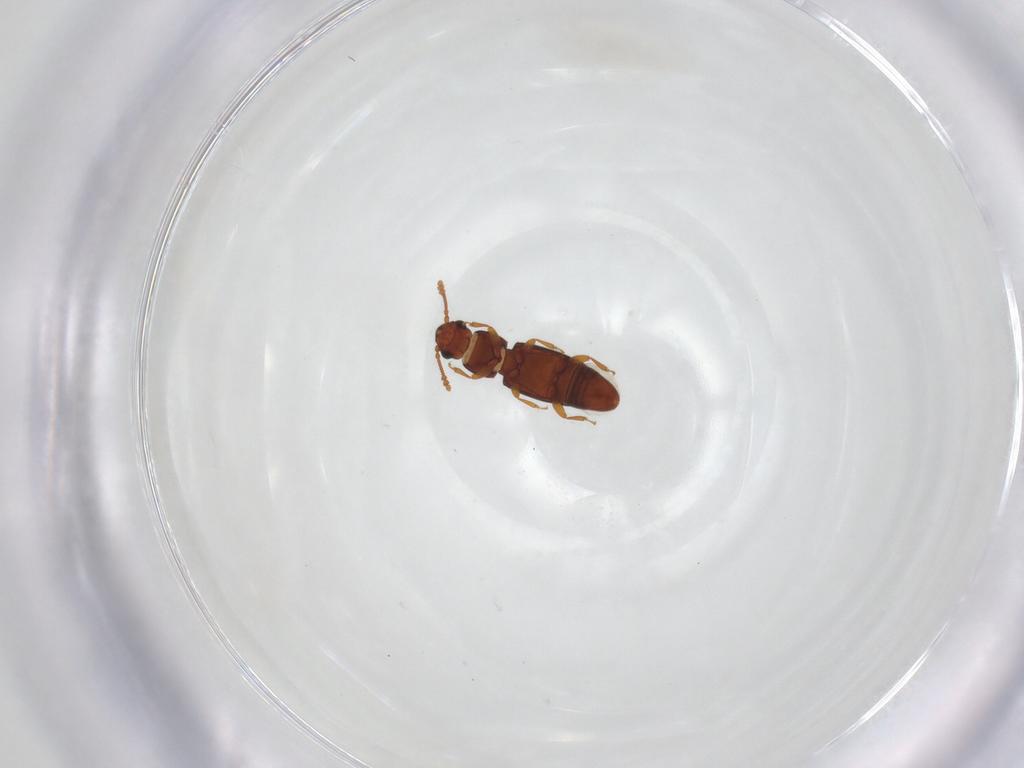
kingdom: Animalia
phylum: Arthropoda
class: Insecta
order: Coleoptera
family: Smicripidae
